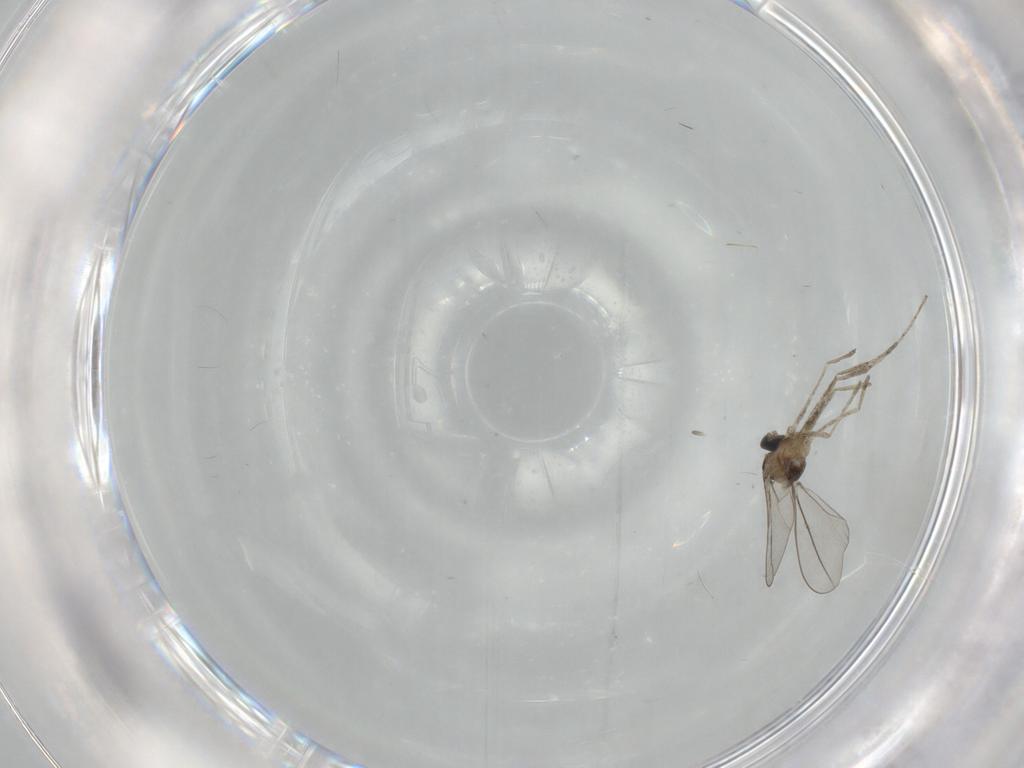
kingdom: Animalia
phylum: Arthropoda
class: Insecta
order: Diptera
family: Cecidomyiidae
